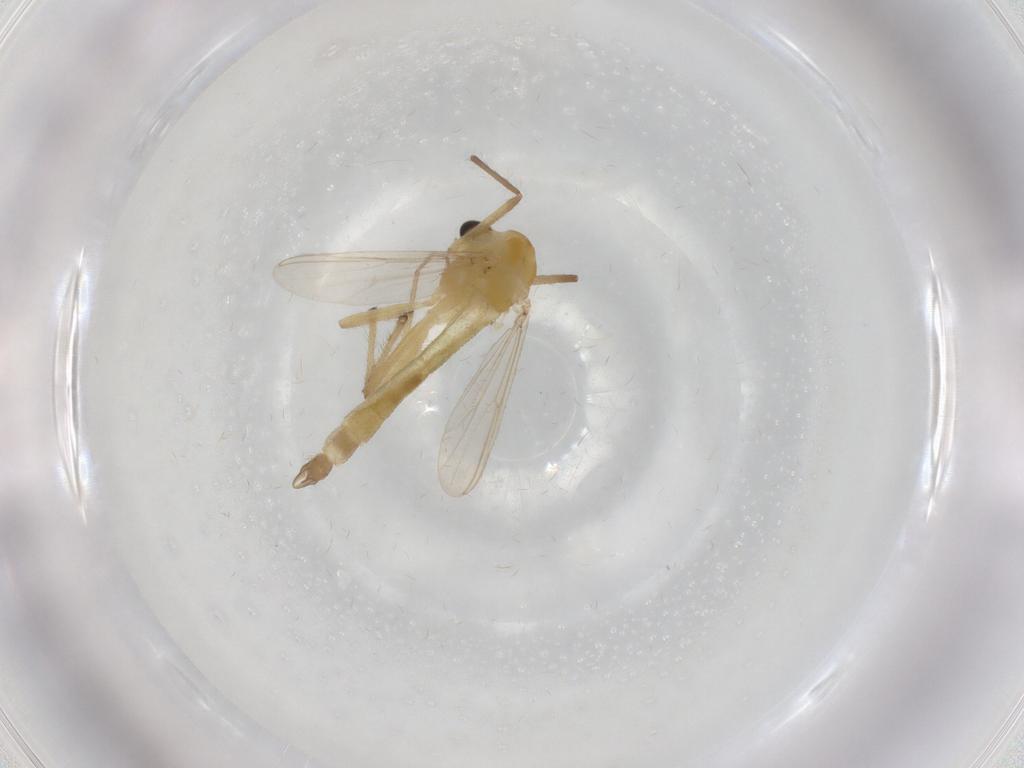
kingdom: Animalia
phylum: Arthropoda
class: Insecta
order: Diptera
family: Chironomidae
